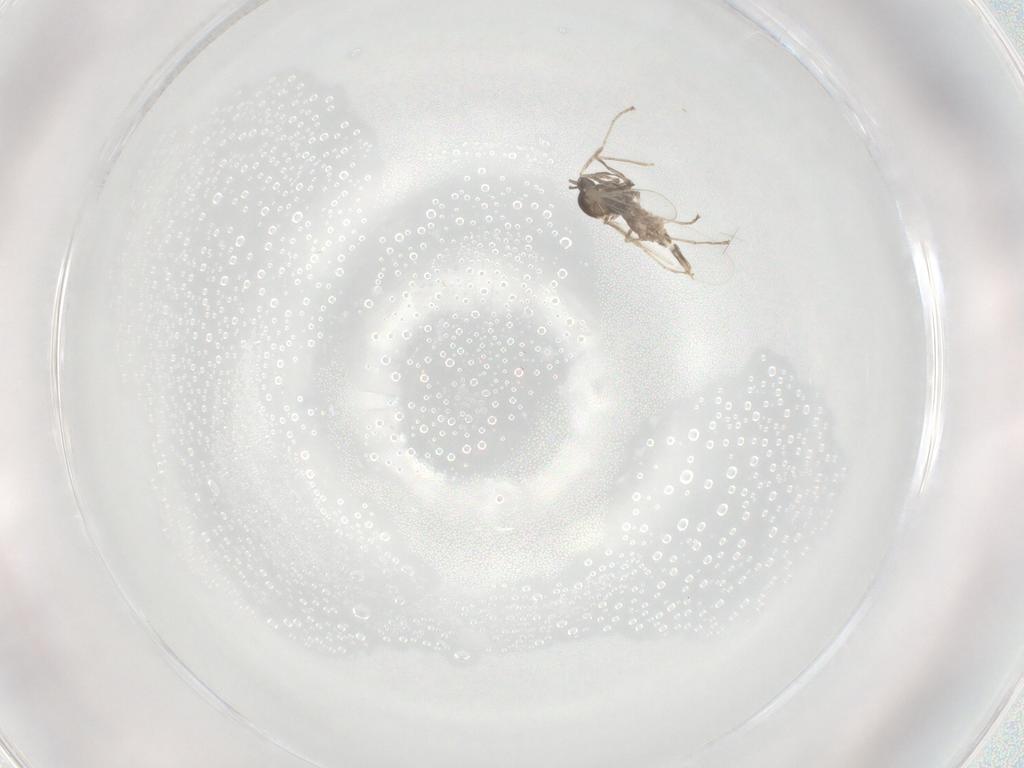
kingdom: Animalia
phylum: Arthropoda
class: Insecta
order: Diptera
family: Cecidomyiidae
